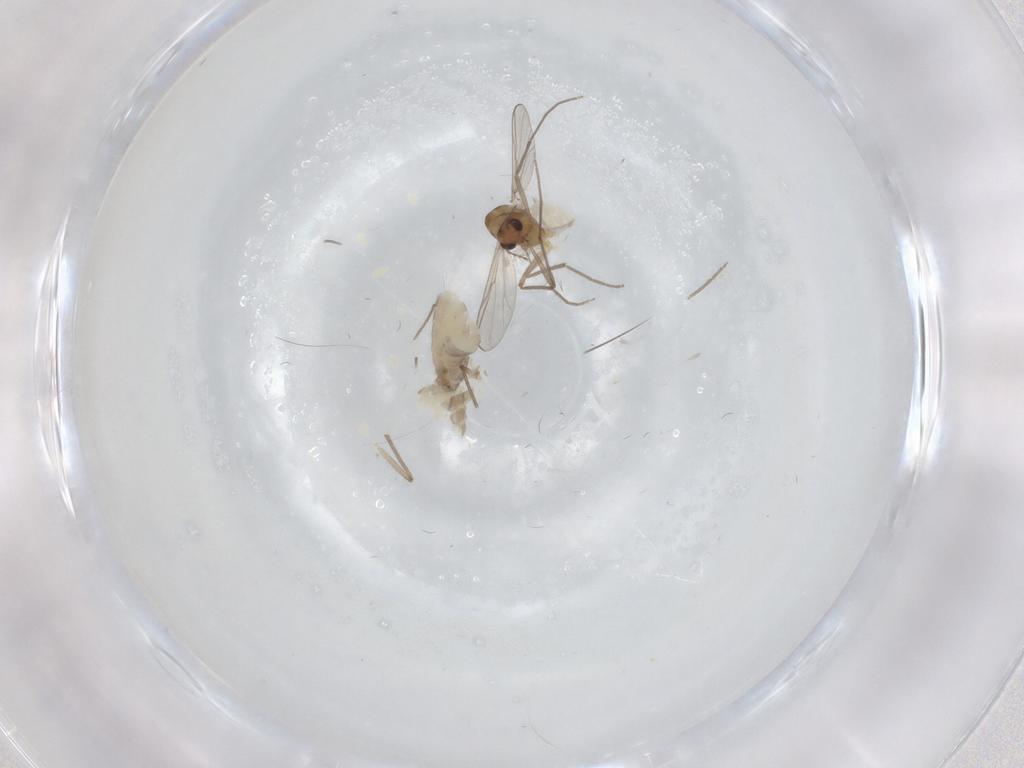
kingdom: Animalia
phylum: Arthropoda
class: Insecta
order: Diptera
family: Chironomidae
